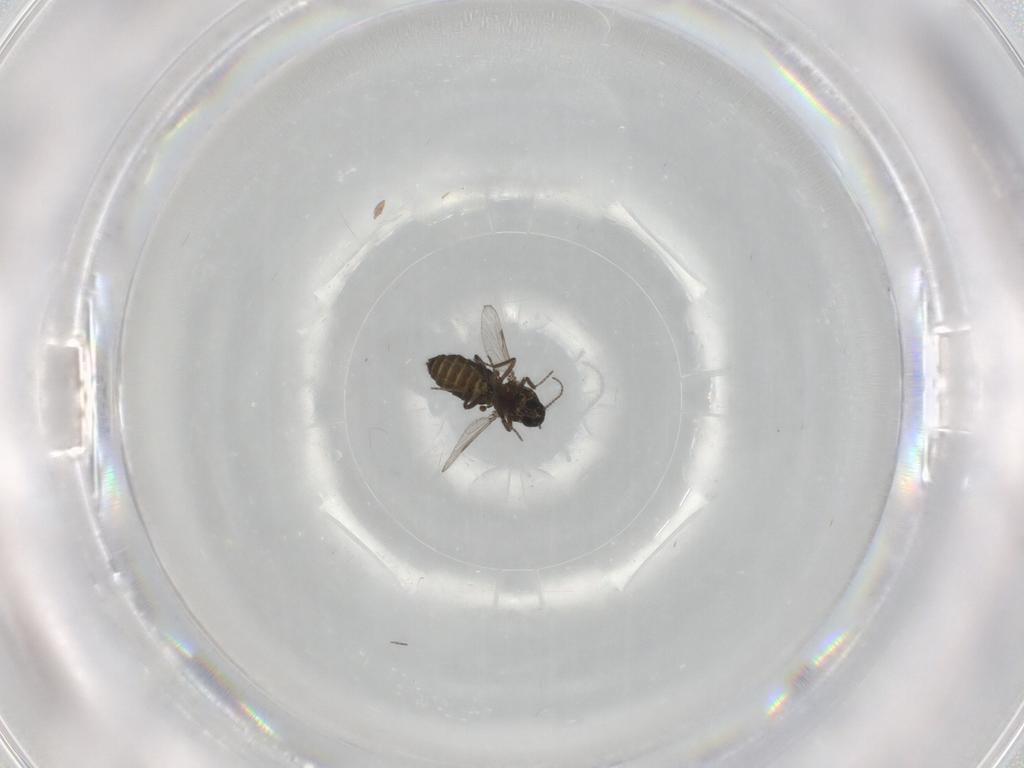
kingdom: Animalia
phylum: Arthropoda
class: Insecta
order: Diptera
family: Ceratopogonidae
